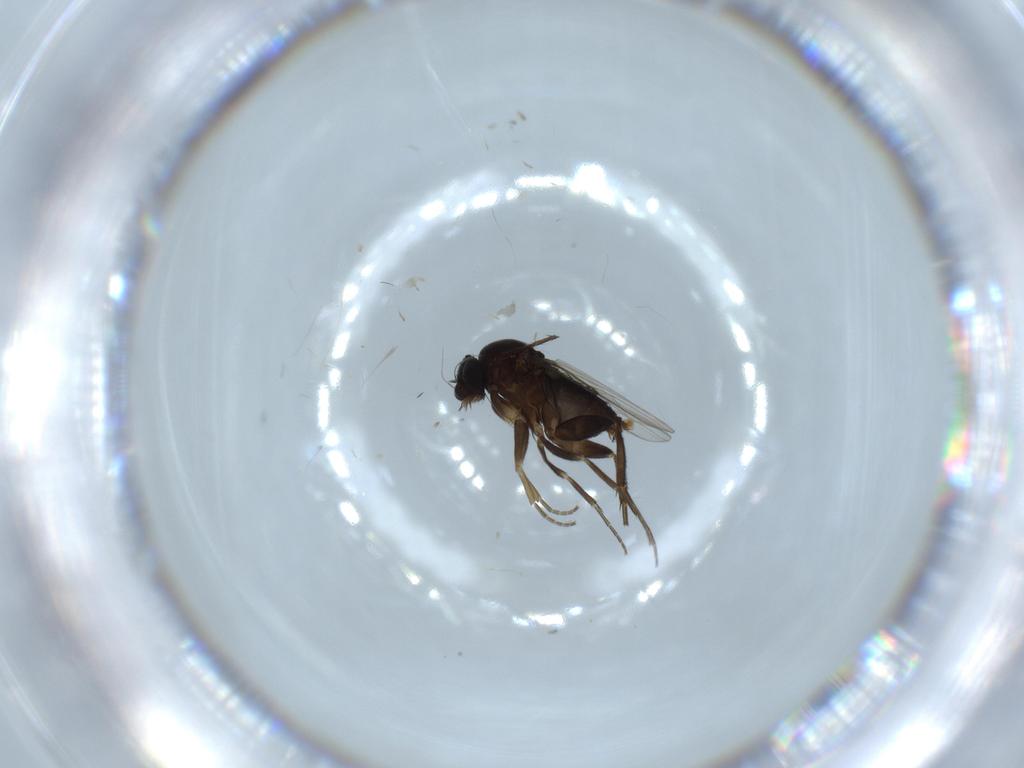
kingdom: Animalia
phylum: Arthropoda
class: Insecta
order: Diptera
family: Phoridae
